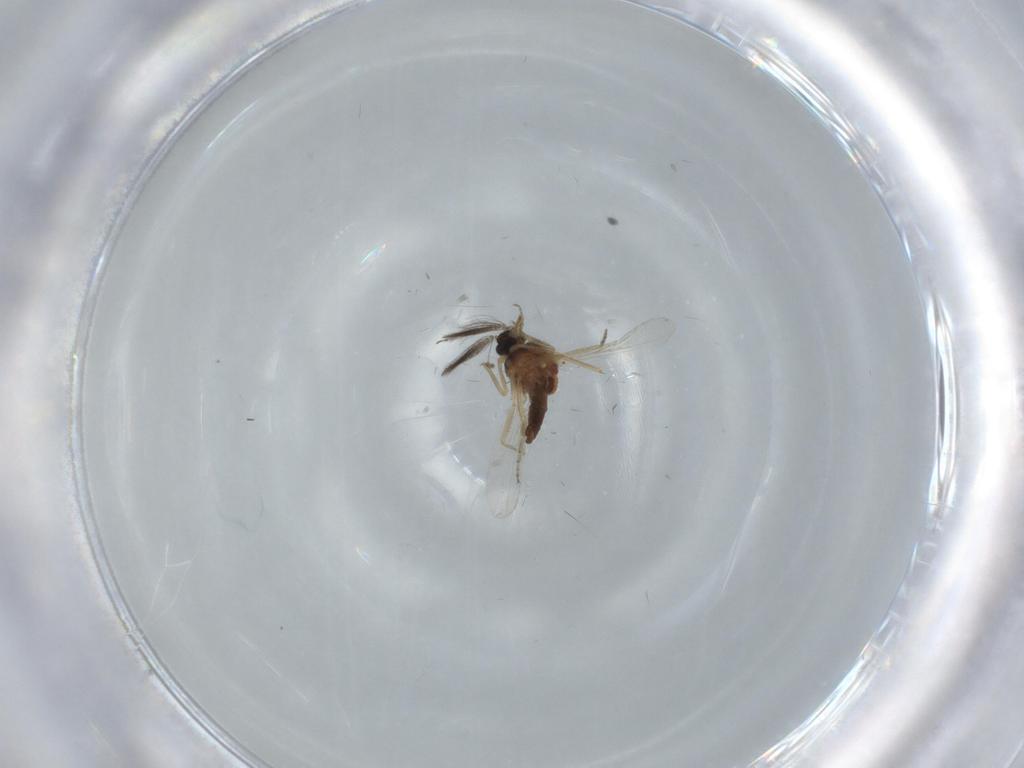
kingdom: Animalia
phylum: Arthropoda
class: Insecta
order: Diptera
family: Ceratopogonidae
